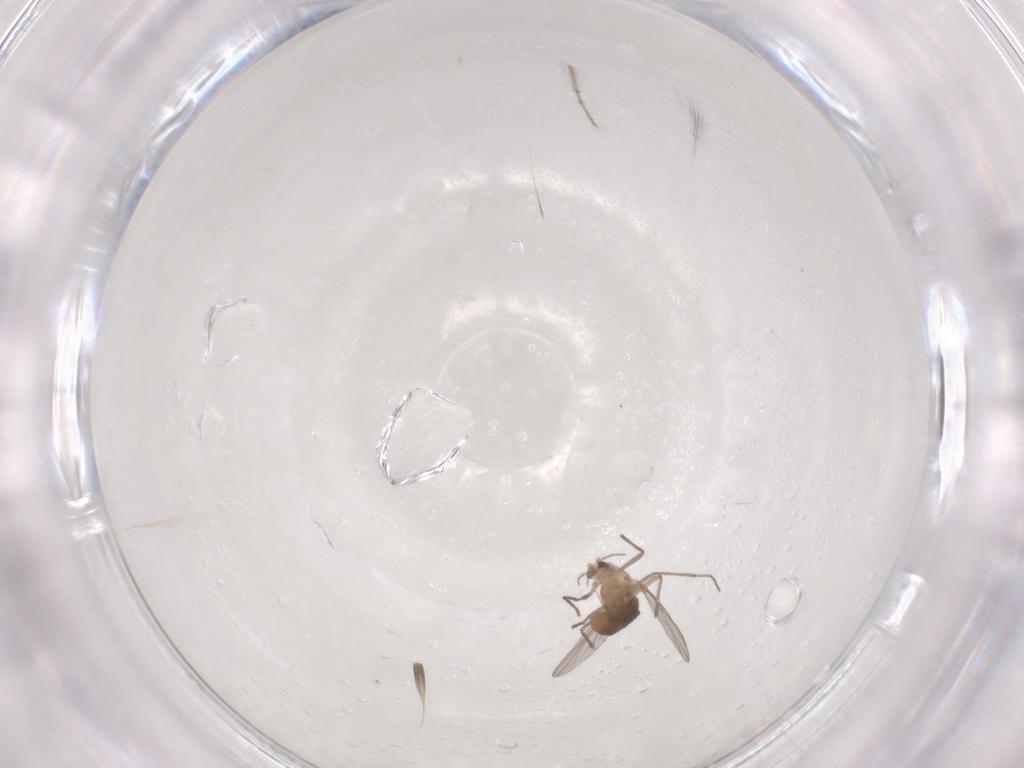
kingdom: Animalia
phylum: Arthropoda
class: Insecta
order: Diptera
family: Chironomidae
